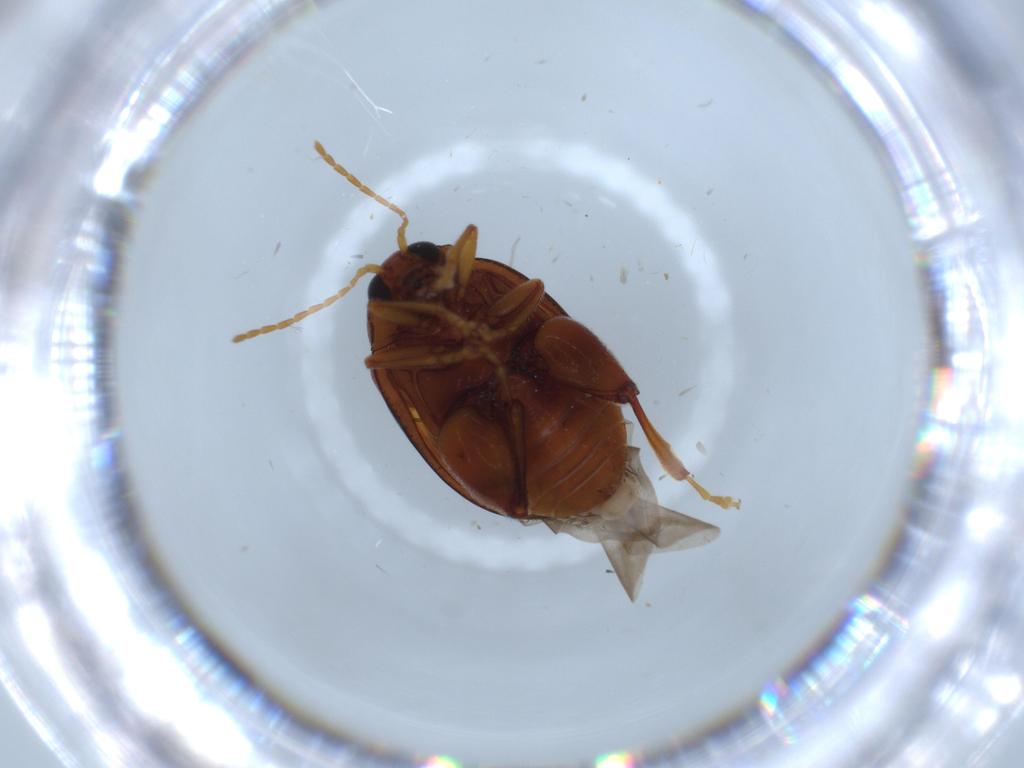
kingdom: Animalia
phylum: Arthropoda
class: Insecta
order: Coleoptera
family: Chrysomelidae
